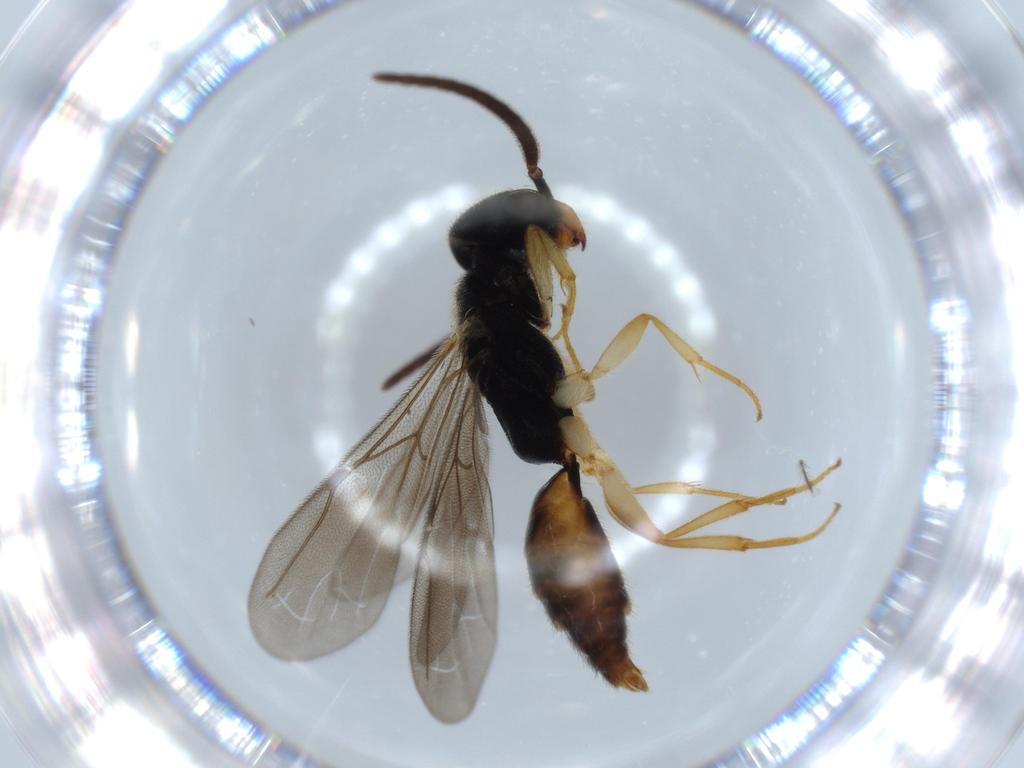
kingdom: Animalia
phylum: Arthropoda
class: Insecta
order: Hymenoptera
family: Bethylidae
